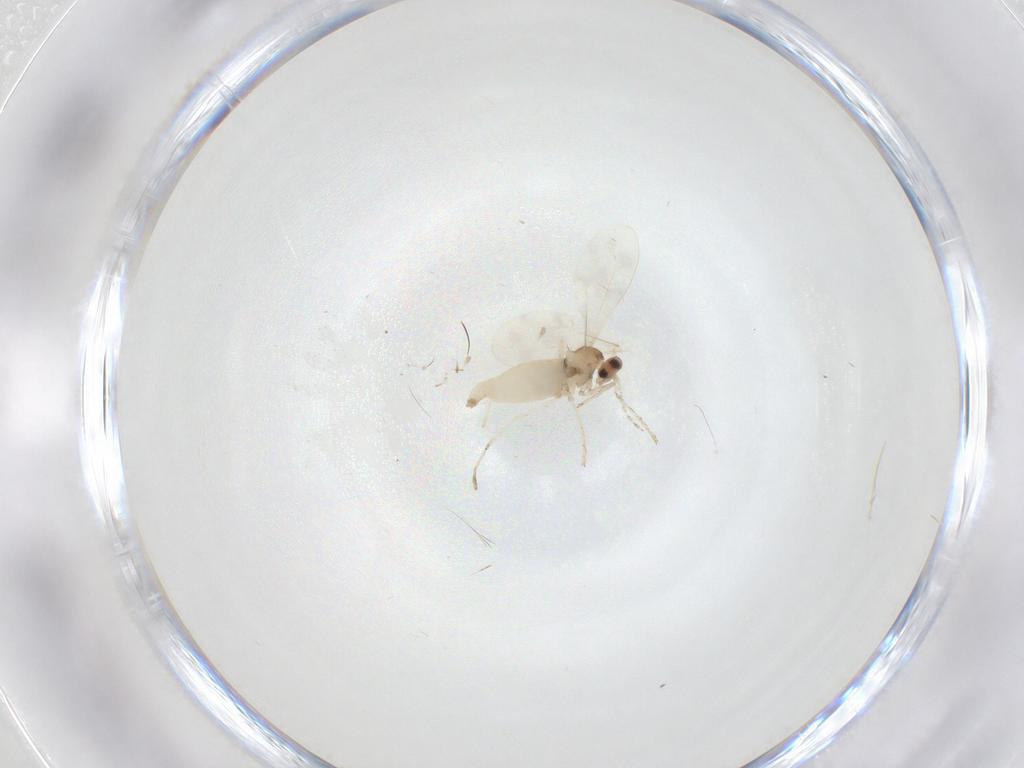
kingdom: Animalia
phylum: Arthropoda
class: Insecta
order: Diptera
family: Cecidomyiidae
